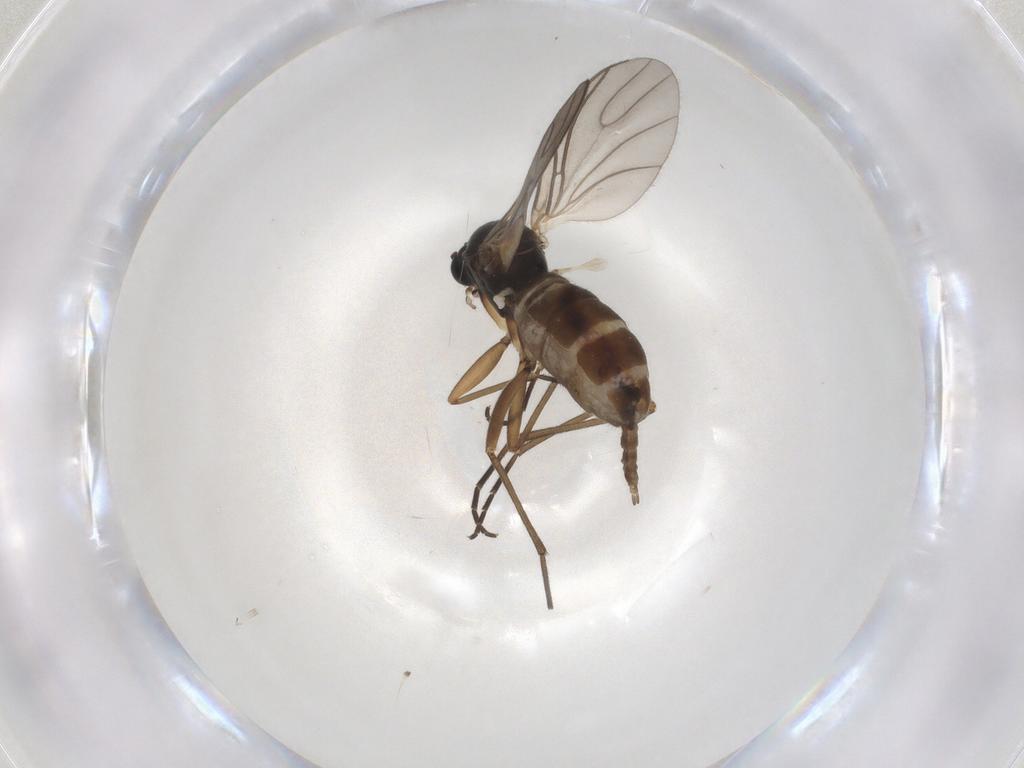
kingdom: Animalia
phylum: Arthropoda
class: Insecta
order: Diptera
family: Sciaridae
